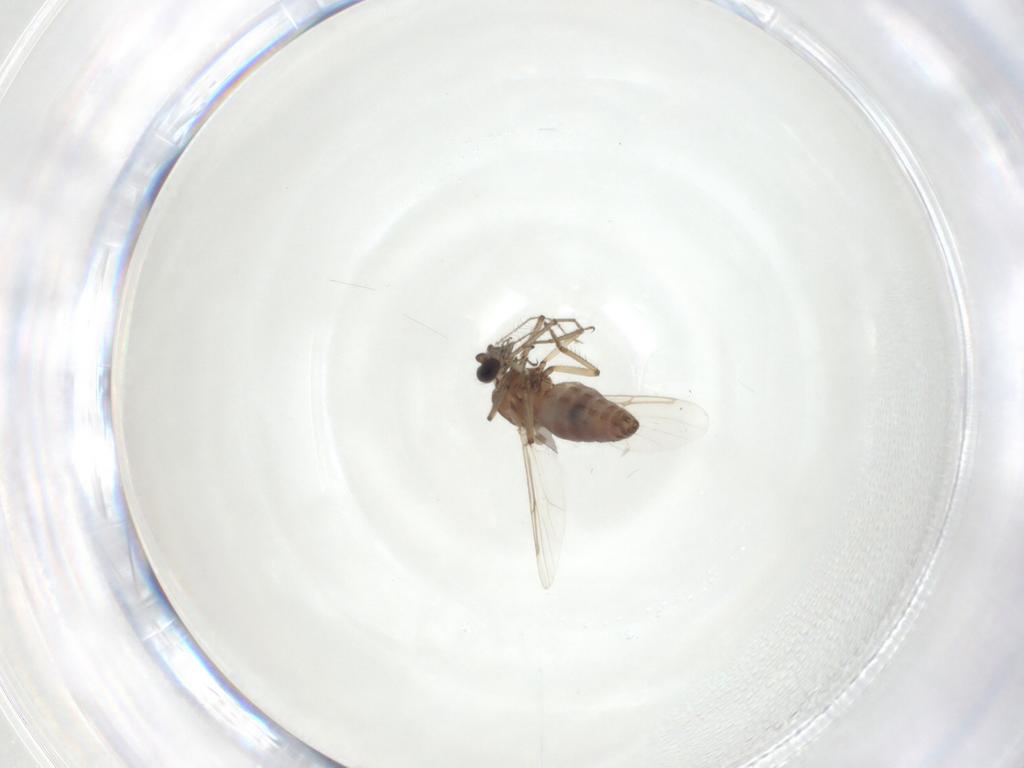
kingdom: Animalia
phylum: Arthropoda
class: Insecta
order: Diptera
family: Ceratopogonidae
